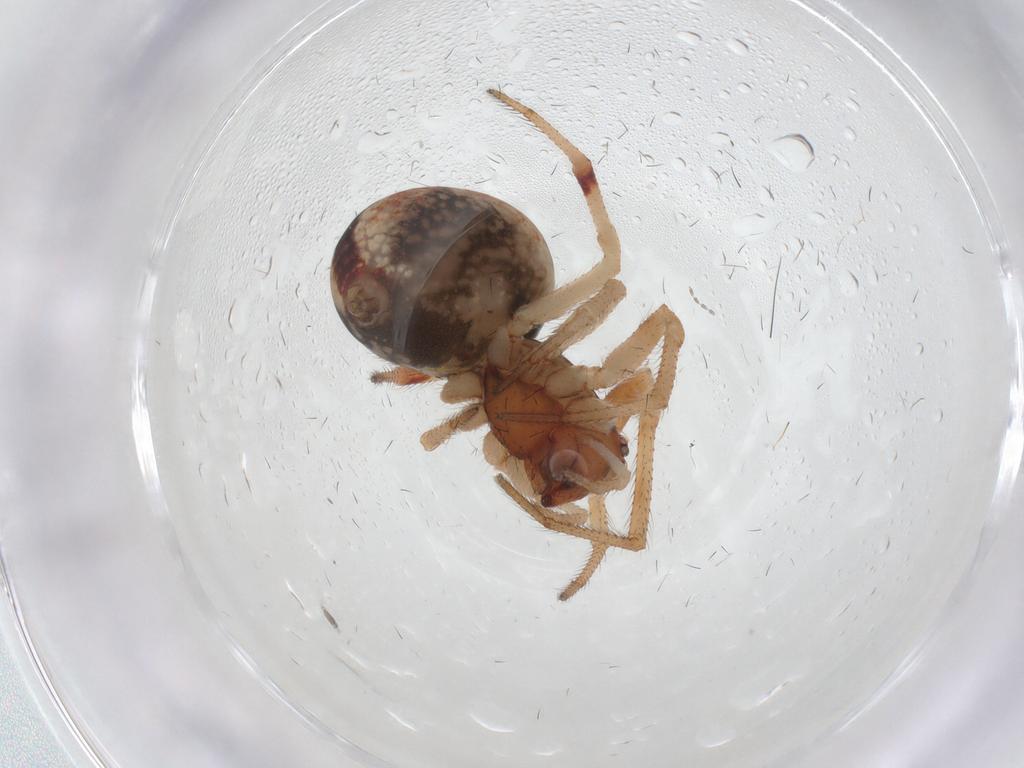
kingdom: Animalia
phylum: Arthropoda
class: Arachnida
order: Araneae
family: Theridiidae
